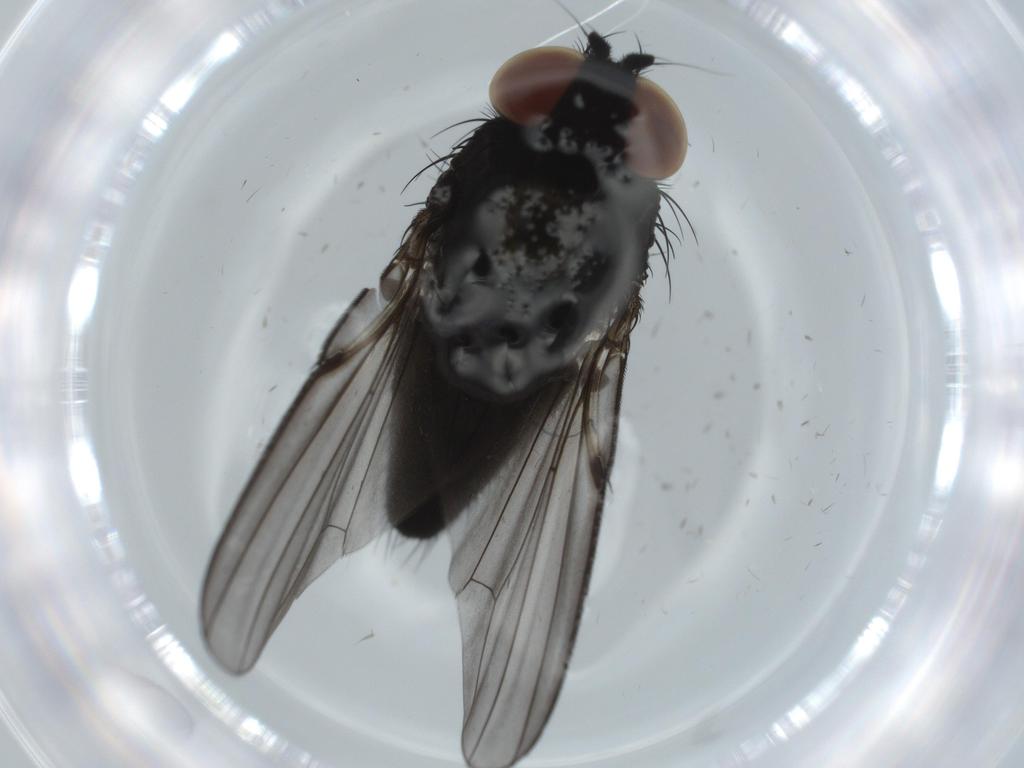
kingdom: Animalia
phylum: Arthropoda
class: Insecta
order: Diptera
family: Milichiidae
